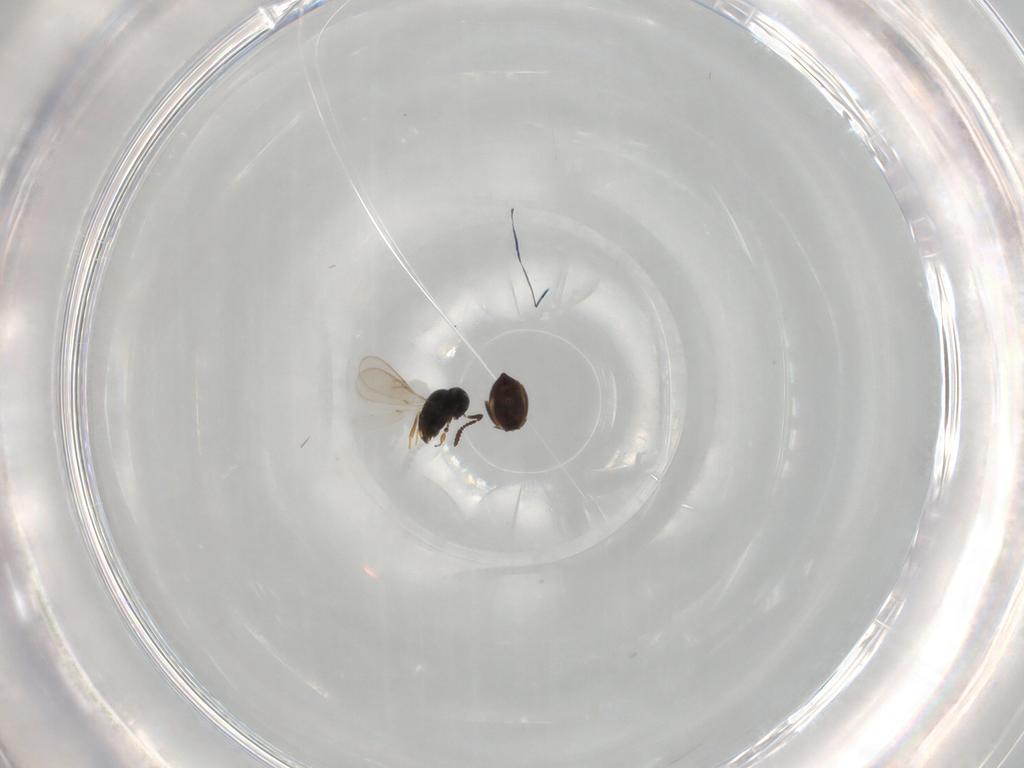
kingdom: Animalia
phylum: Arthropoda
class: Insecta
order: Hymenoptera
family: Scelionidae
